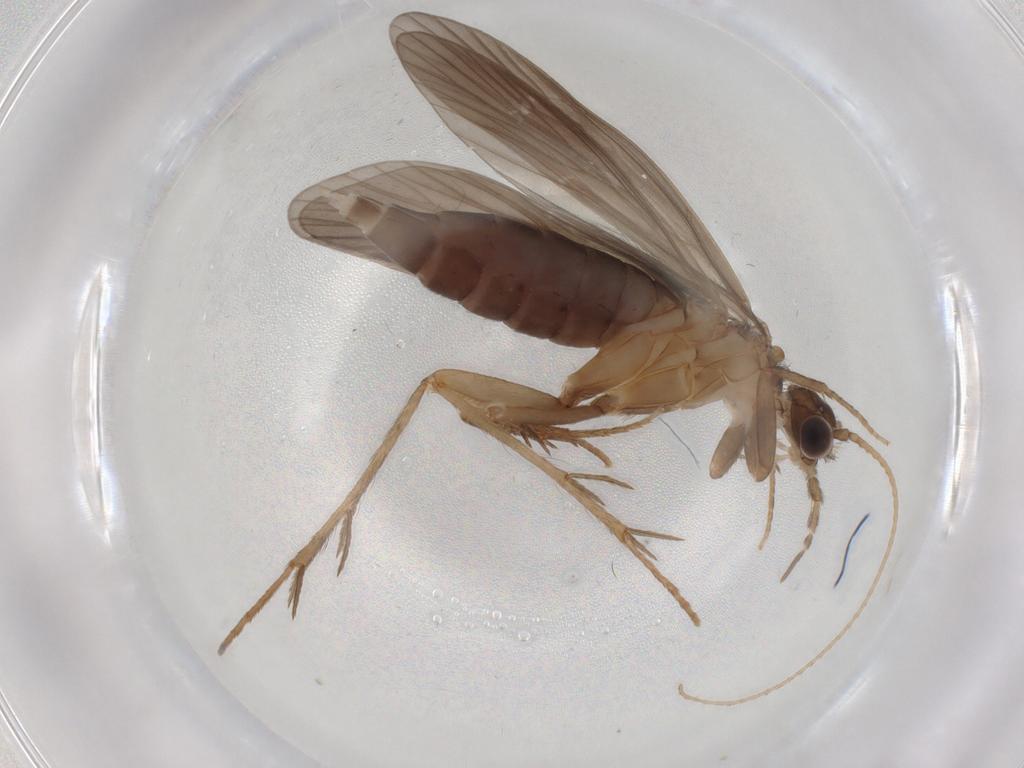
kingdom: Animalia
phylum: Arthropoda
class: Insecta
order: Trichoptera
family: Philopotamidae
